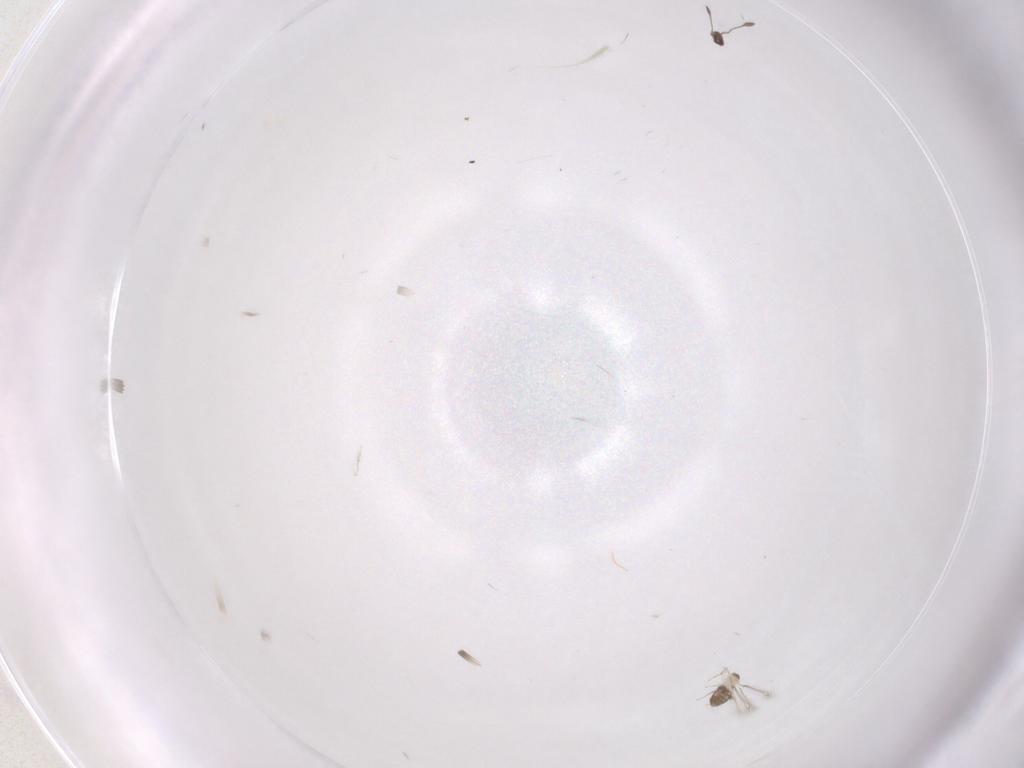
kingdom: Animalia
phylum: Arthropoda
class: Insecta
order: Hymenoptera
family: Mymaridae
